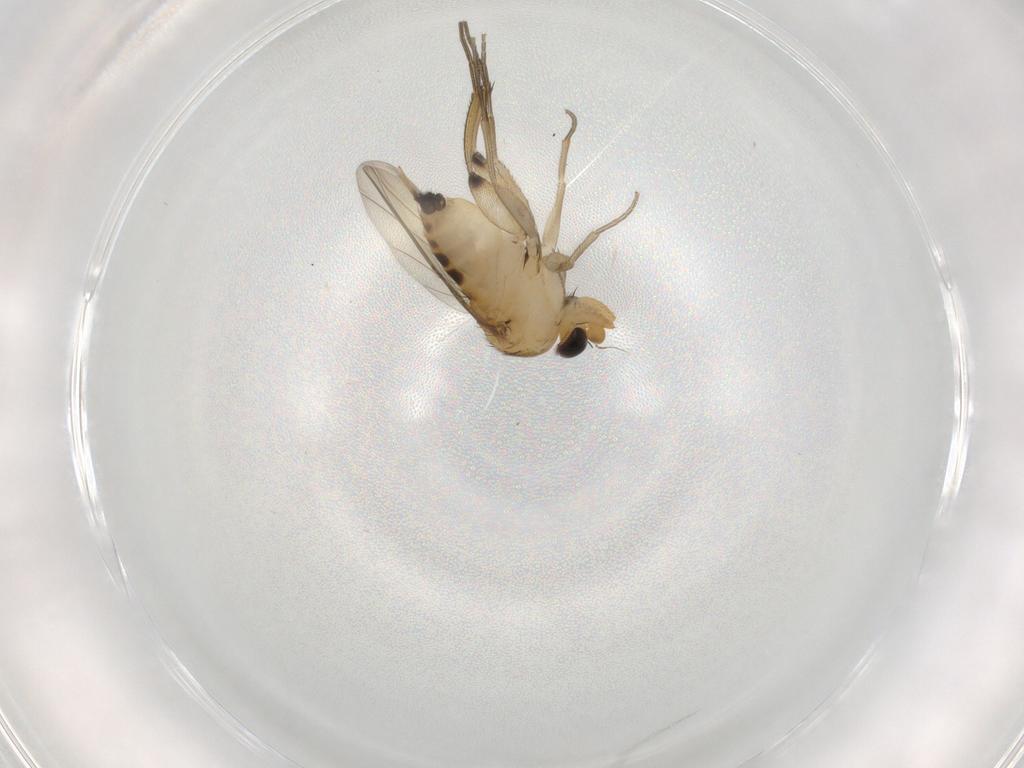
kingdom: Animalia
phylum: Arthropoda
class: Insecta
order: Diptera
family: Phoridae
